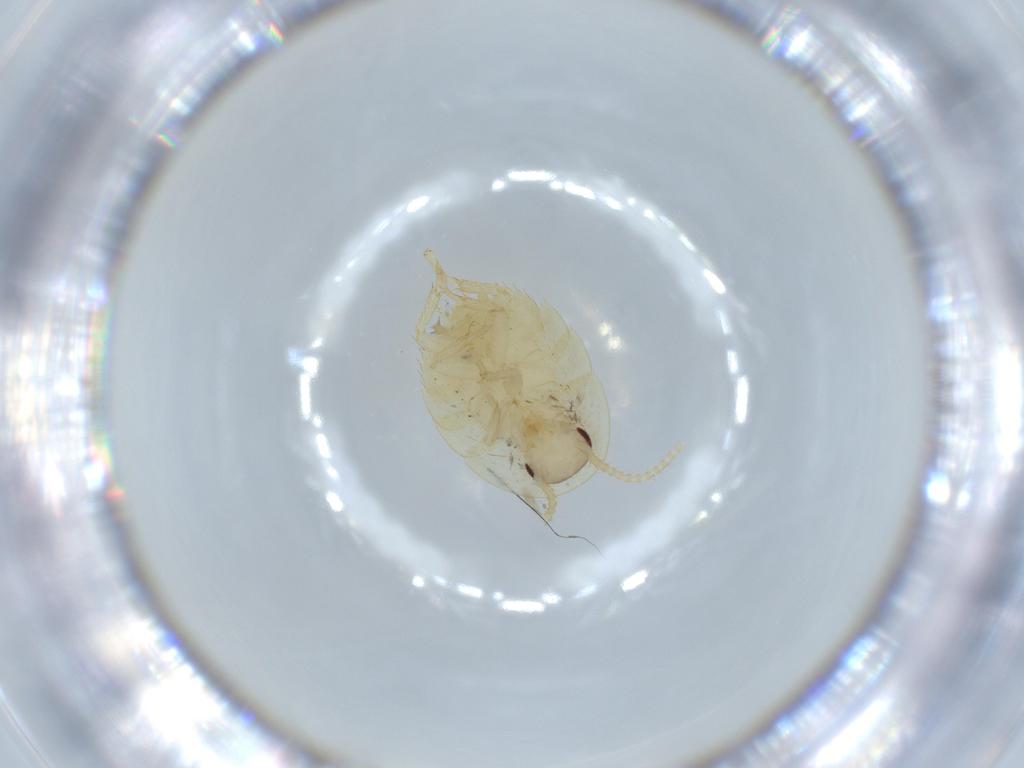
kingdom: Animalia
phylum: Arthropoda
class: Insecta
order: Blattodea
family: Ectobiidae
